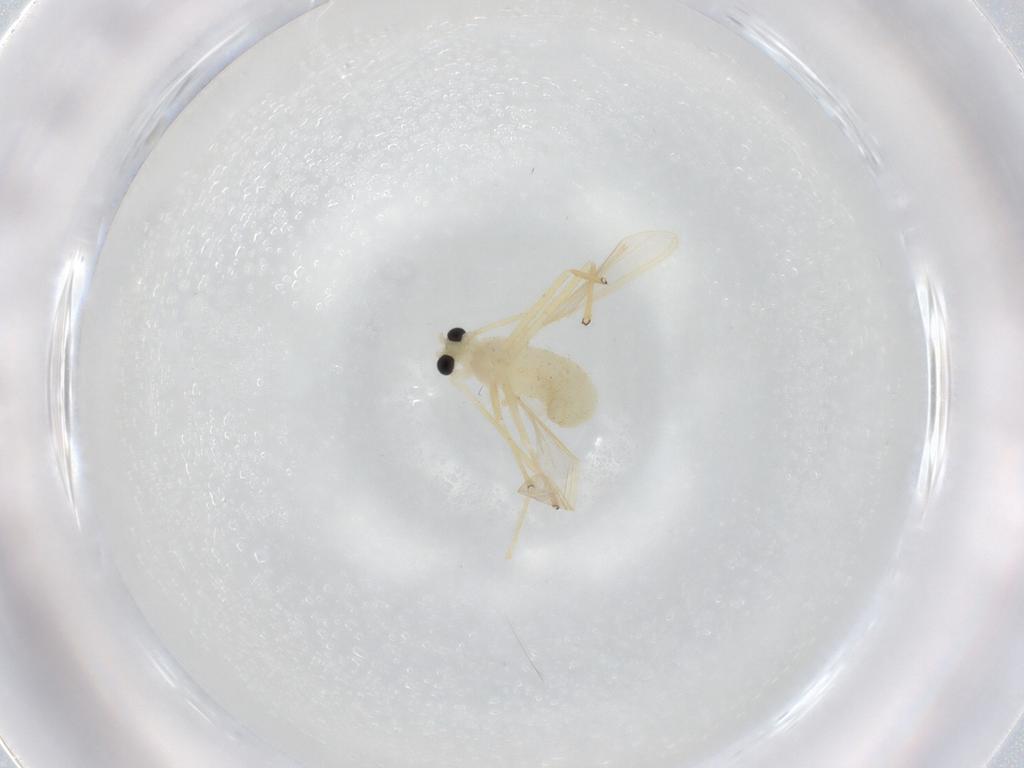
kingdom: Animalia
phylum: Arthropoda
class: Insecta
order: Diptera
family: Chironomidae
